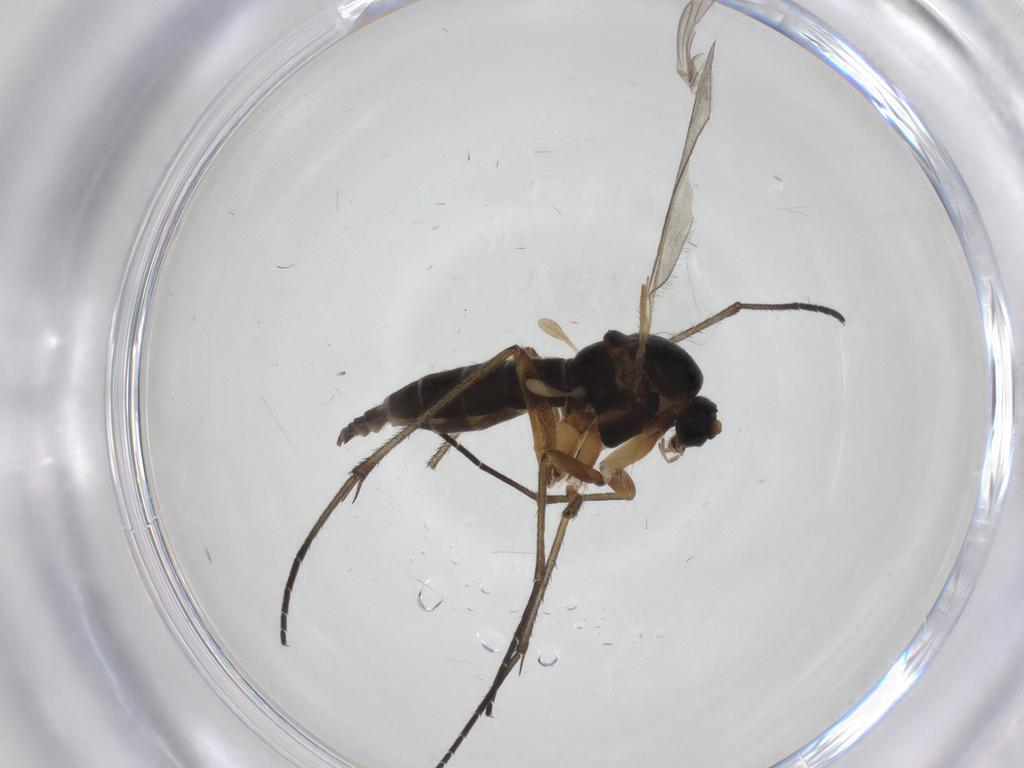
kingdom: Animalia
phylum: Arthropoda
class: Insecta
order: Diptera
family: Sciaridae
